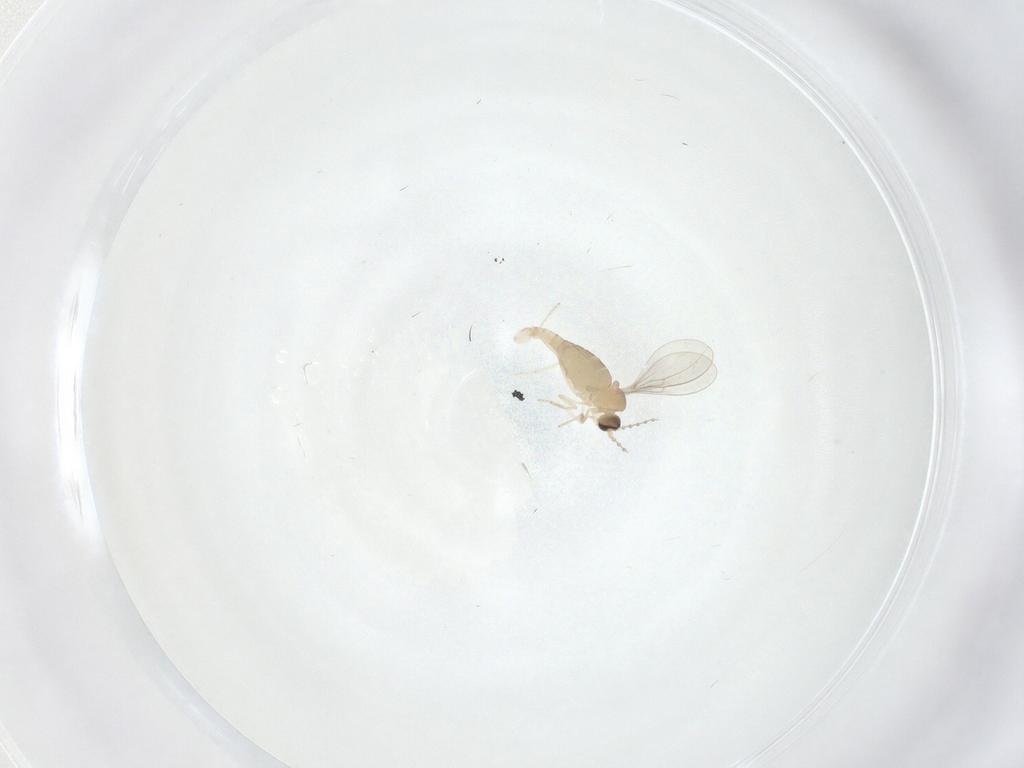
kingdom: Animalia
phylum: Arthropoda
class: Insecta
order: Diptera
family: Cecidomyiidae
